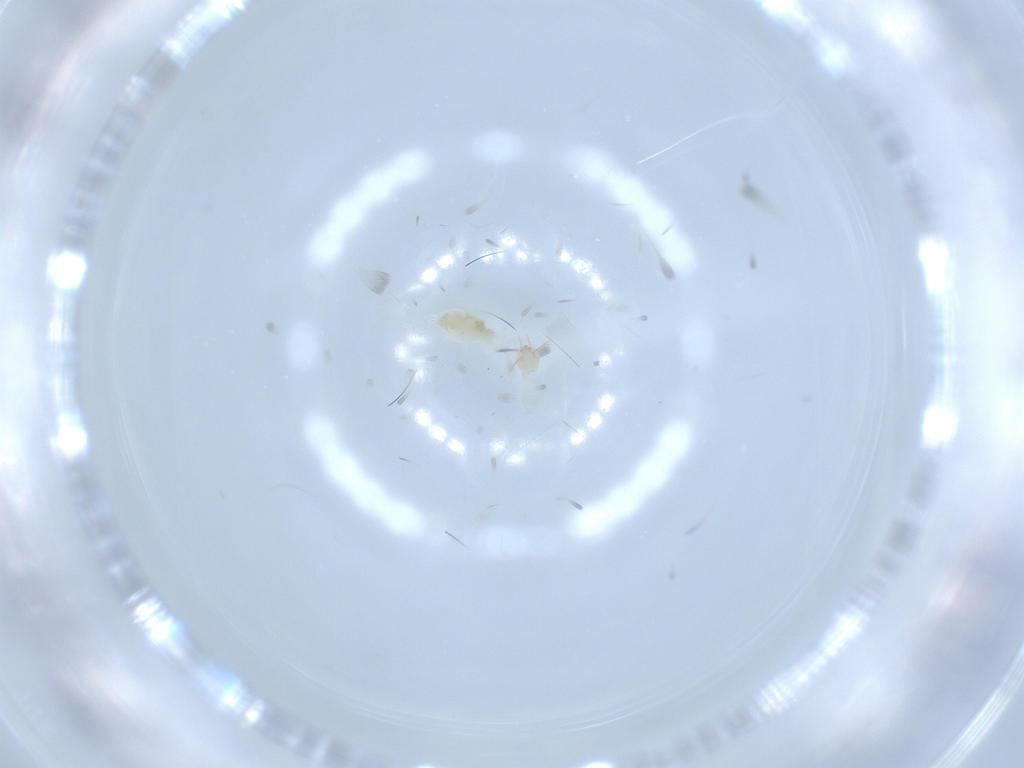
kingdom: Animalia
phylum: Arthropoda
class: Arachnida
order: Trombidiformes
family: Eupodidae
